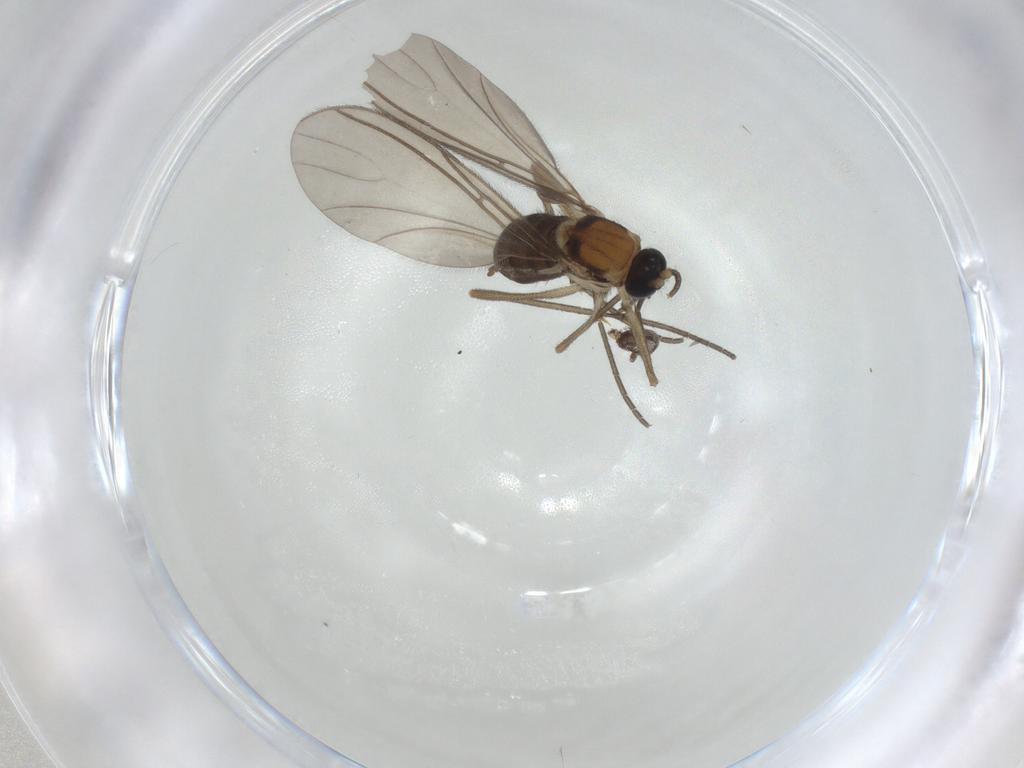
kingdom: Animalia
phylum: Arthropoda
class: Insecta
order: Diptera
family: Sciaridae
